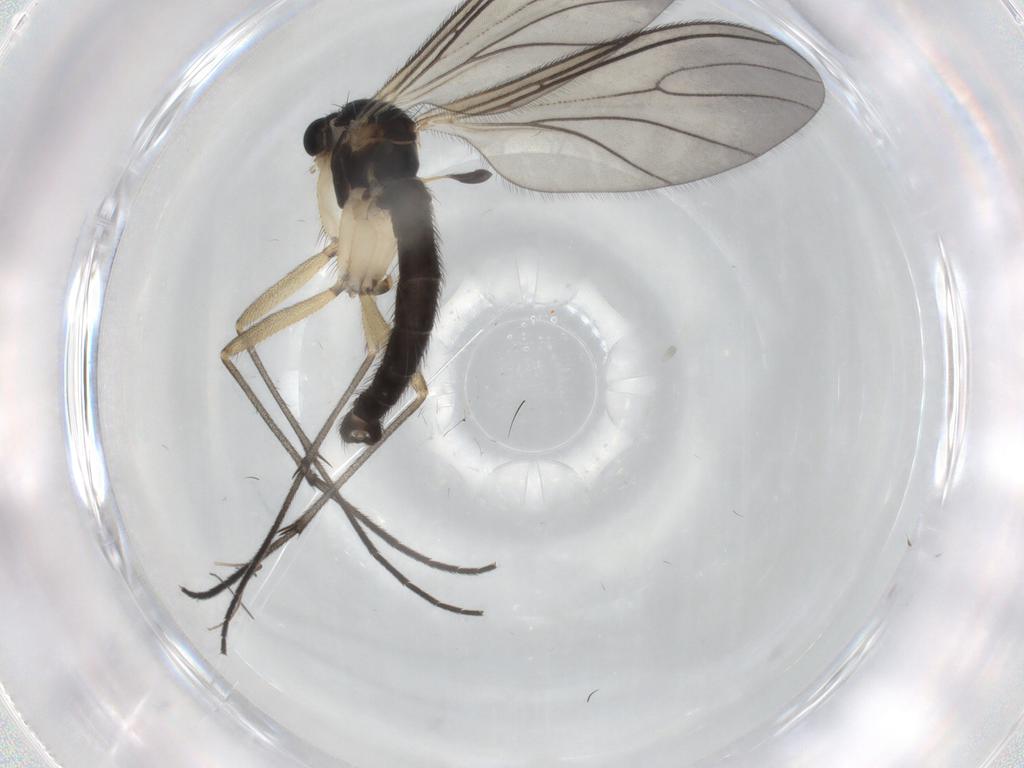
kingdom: Animalia
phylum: Arthropoda
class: Insecta
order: Diptera
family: Sciaridae
